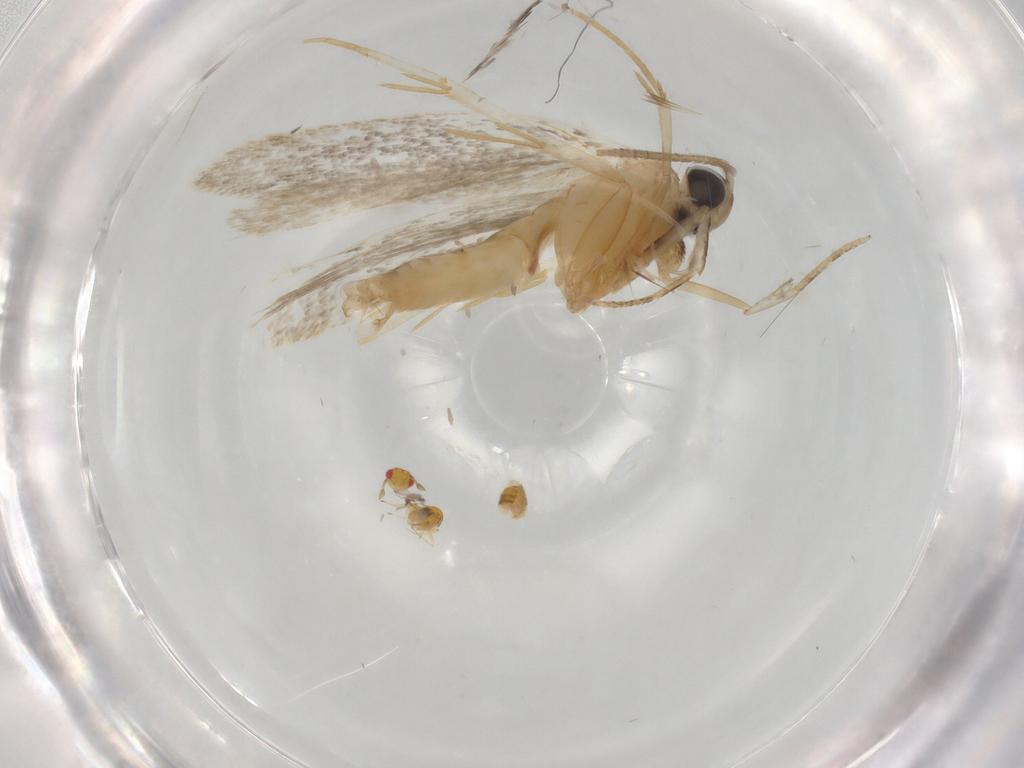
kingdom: Animalia
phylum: Arthropoda
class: Insecta
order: Lepidoptera
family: Autostichidae
